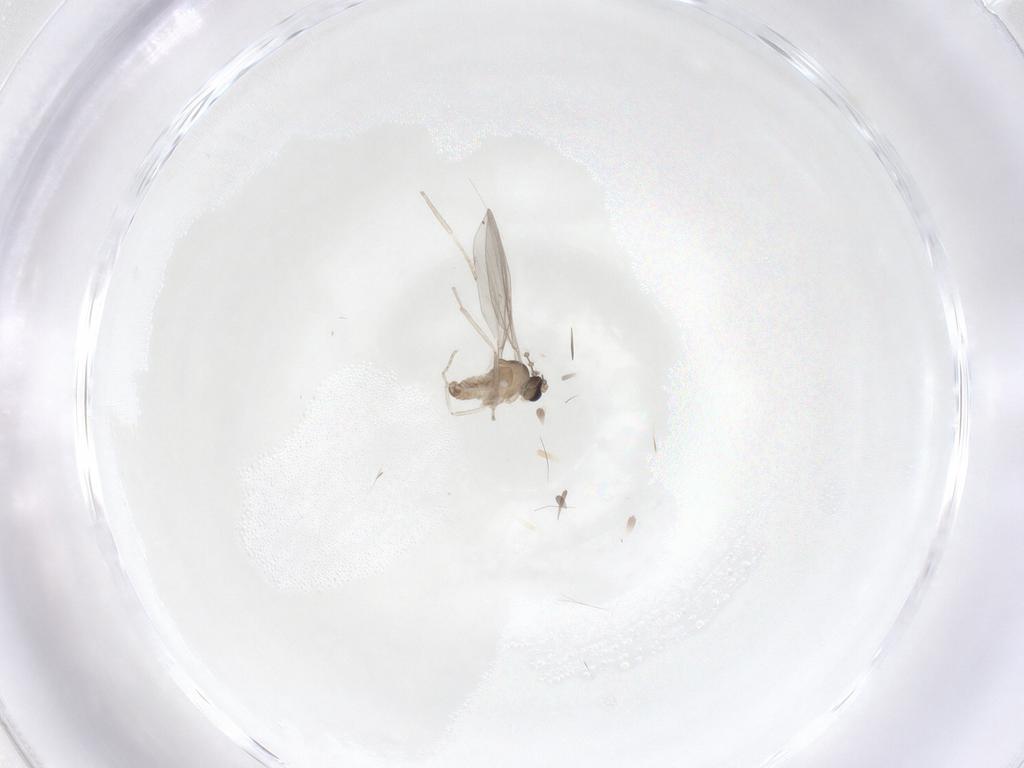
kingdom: Animalia
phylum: Arthropoda
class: Insecta
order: Diptera
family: Cecidomyiidae
